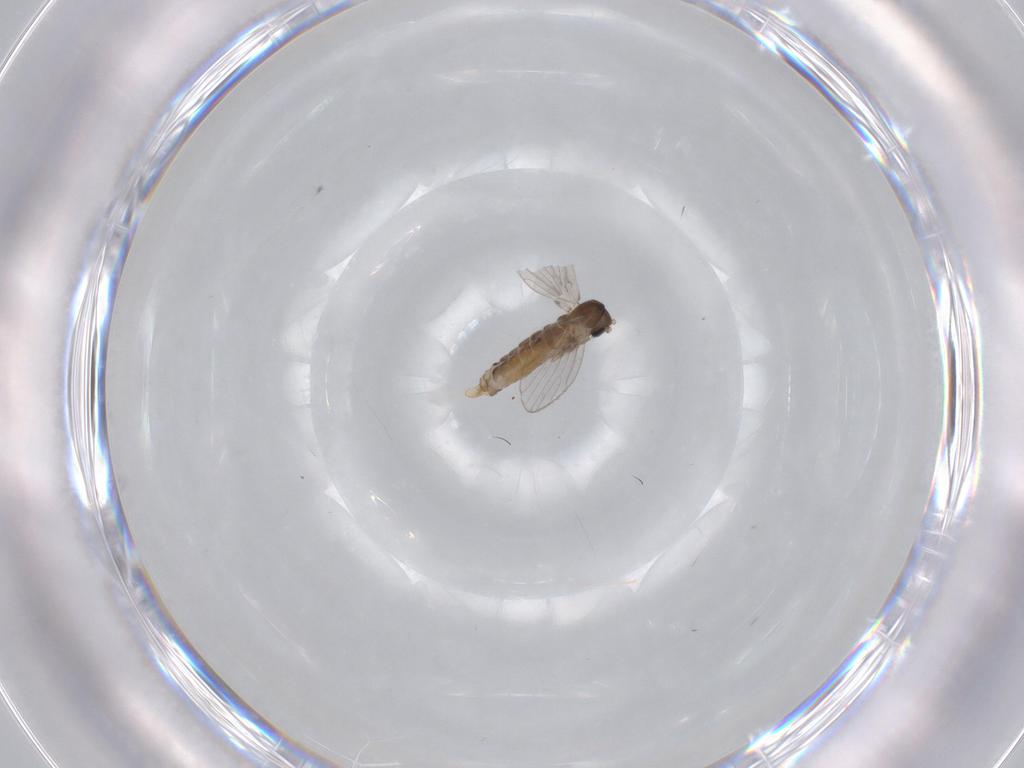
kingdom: Animalia
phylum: Arthropoda
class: Insecta
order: Diptera
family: Psychodidae
